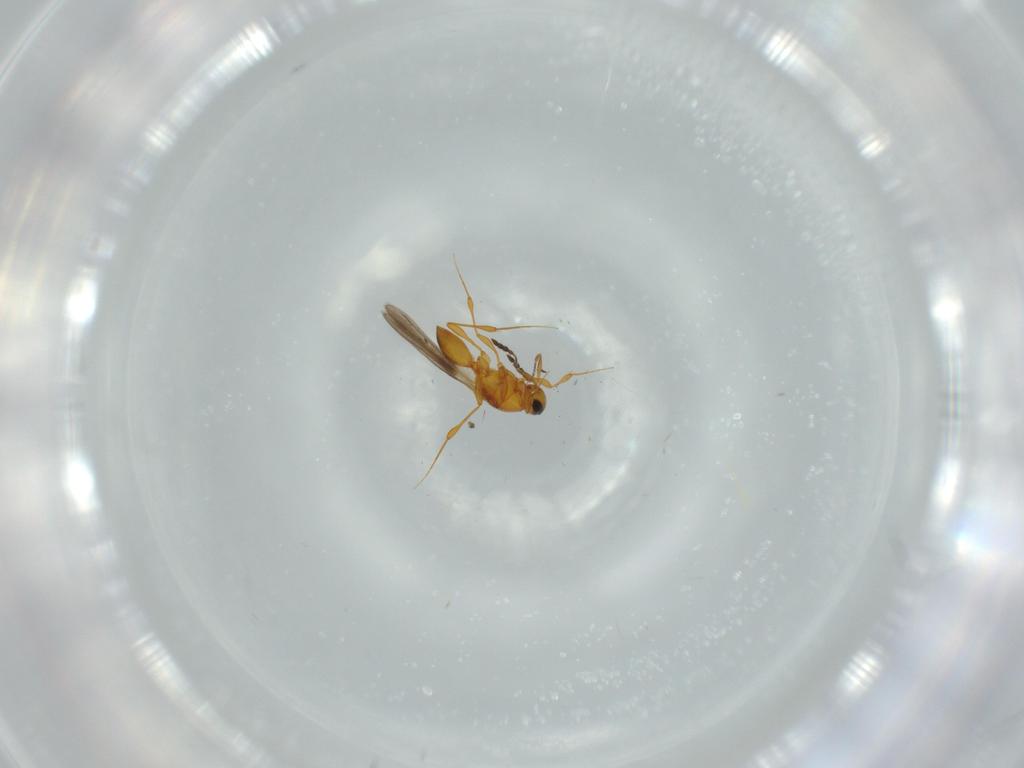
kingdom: Animalia
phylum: Arthropoda
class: Insecta
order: Hymenoptera
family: Platygastridae
